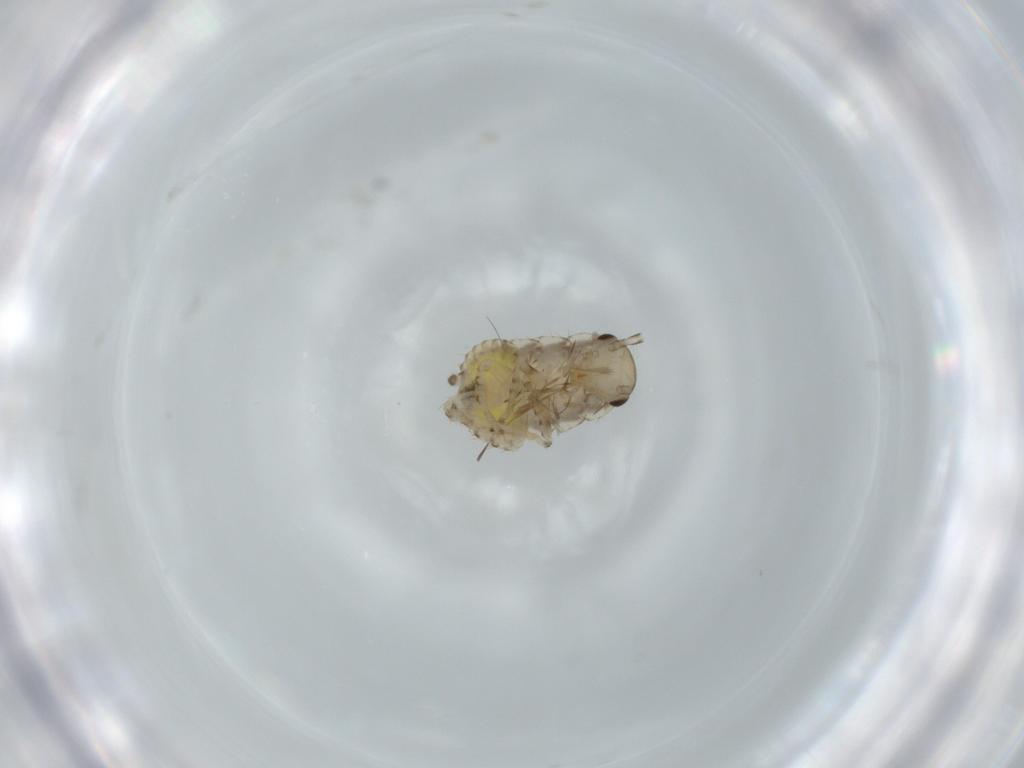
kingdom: Animalia
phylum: Arthropoda
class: Insecta
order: Blattodea
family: Ectobiidae
